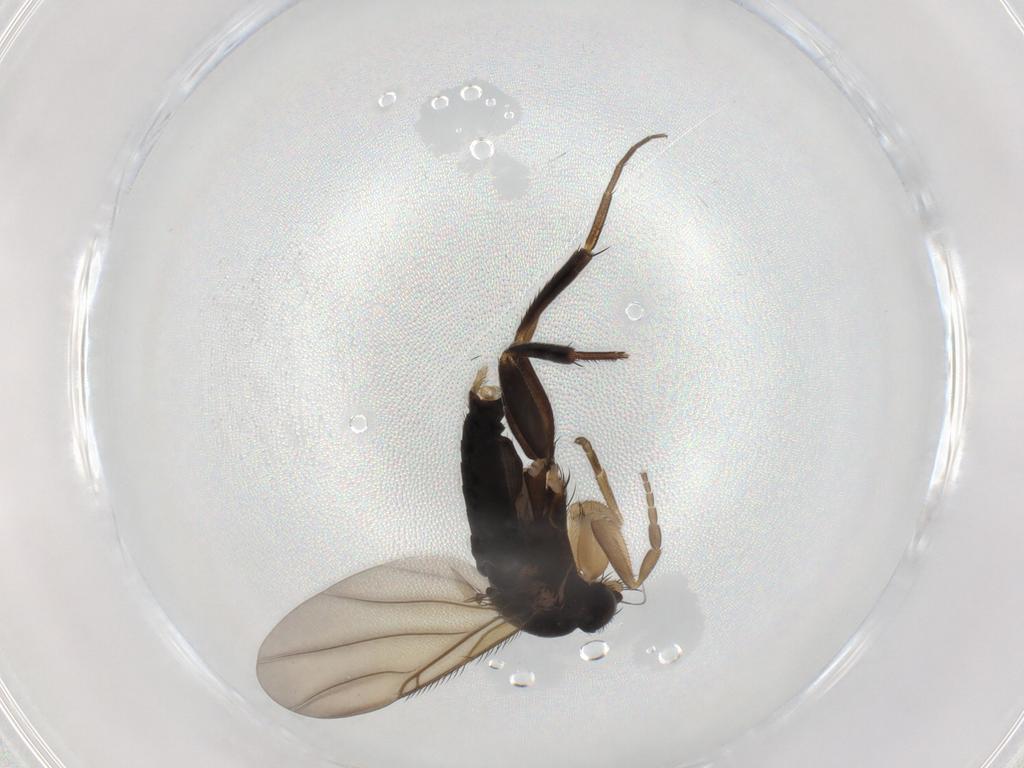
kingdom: Animalia
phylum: Arthropoda
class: Insecta
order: Diptera
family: Phoridae
